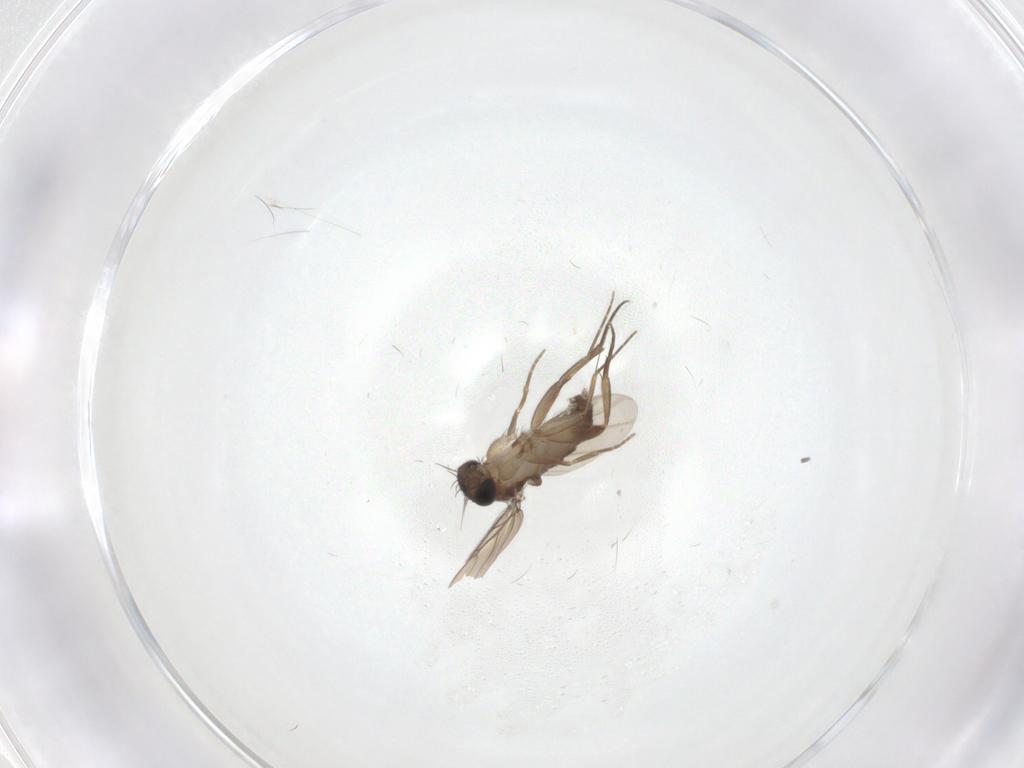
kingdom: Animalia
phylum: Arthropoda
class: Insecta
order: Diptera
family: Phoridae
